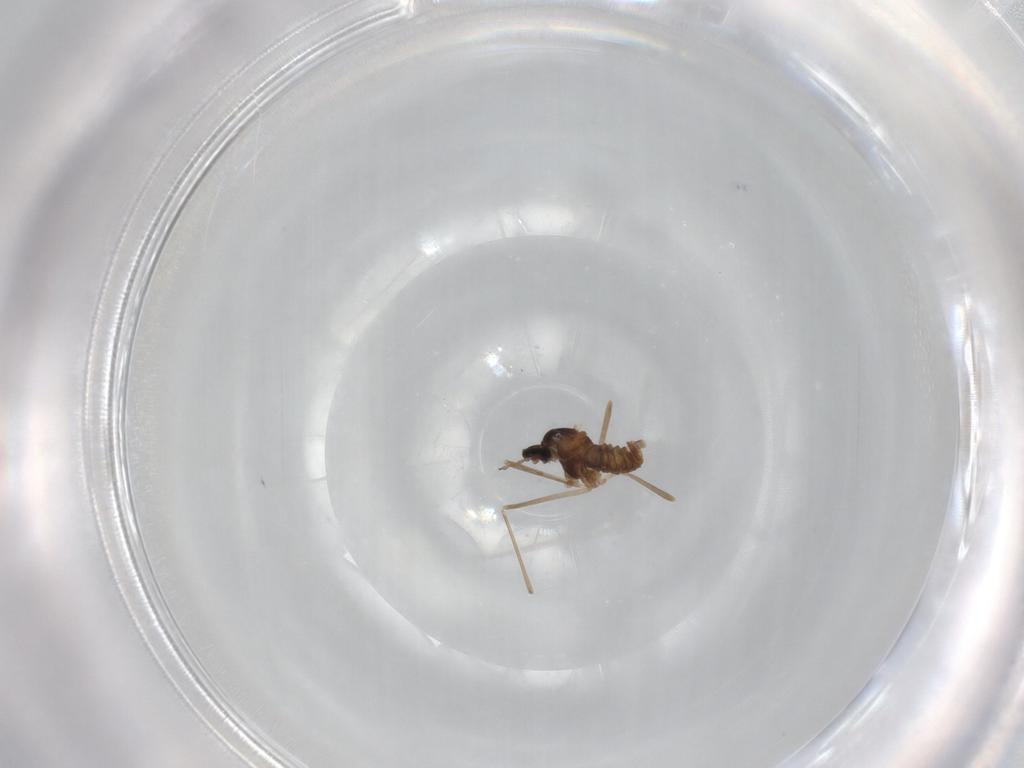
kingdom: Animalia
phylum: Arthropoda
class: Insecta
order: Diptera
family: Cecidomyiidae
